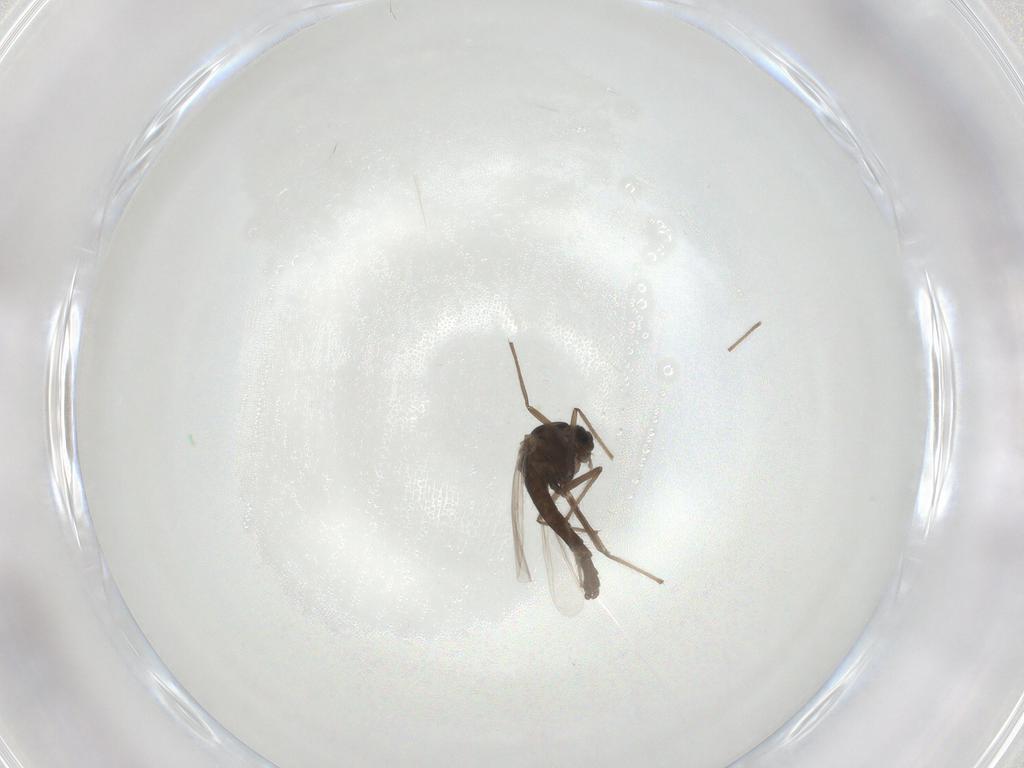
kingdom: Animalia
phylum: Arthropoda
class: Insecta
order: Diptera
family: Chironomidae
